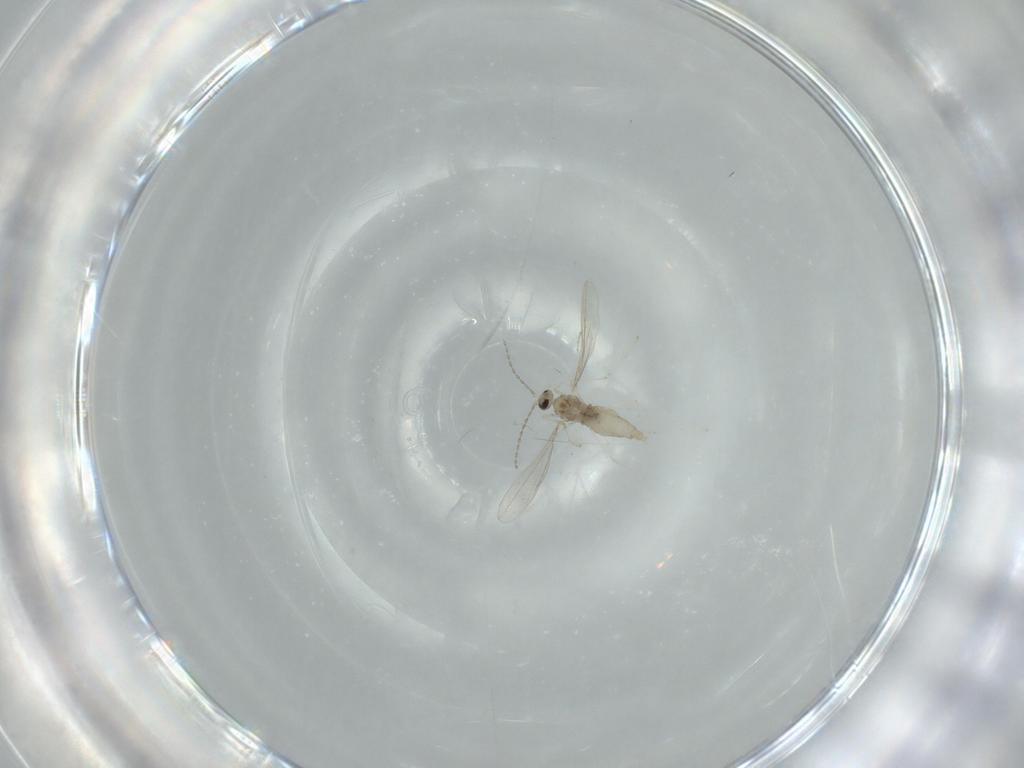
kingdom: Animalia
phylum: Arthropoda
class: Insecta
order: Diptera
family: Cecidomyiidae
